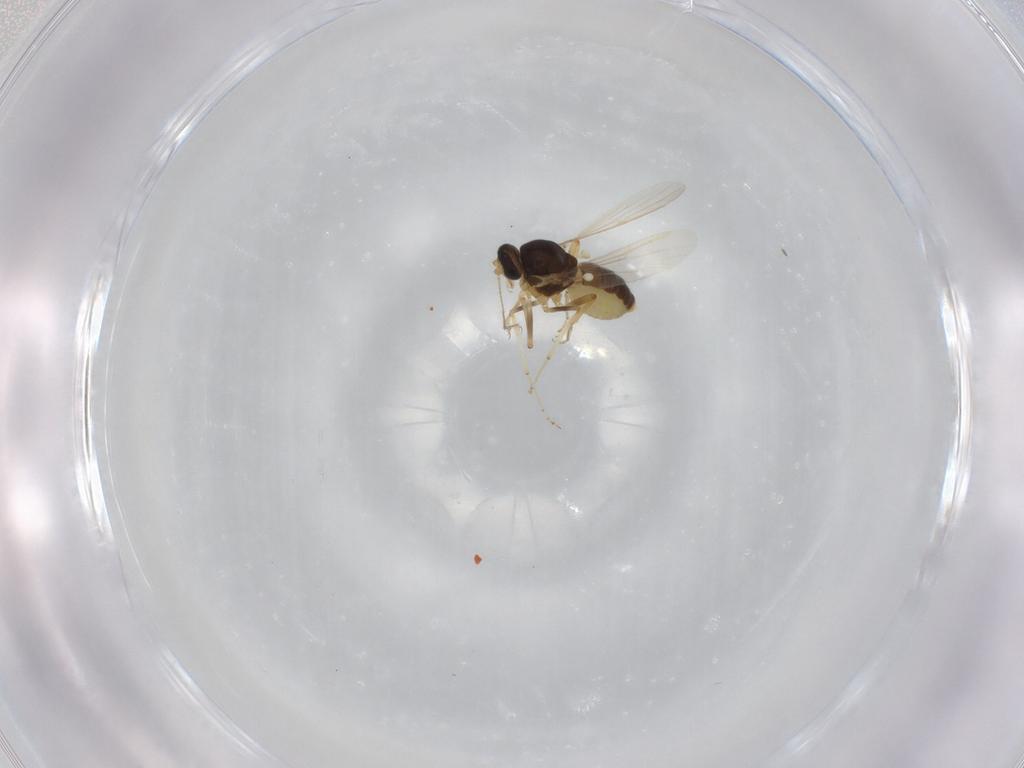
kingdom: Animalia
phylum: Arthropoda
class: Insecta
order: Diptera
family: Ceratopogonidae
